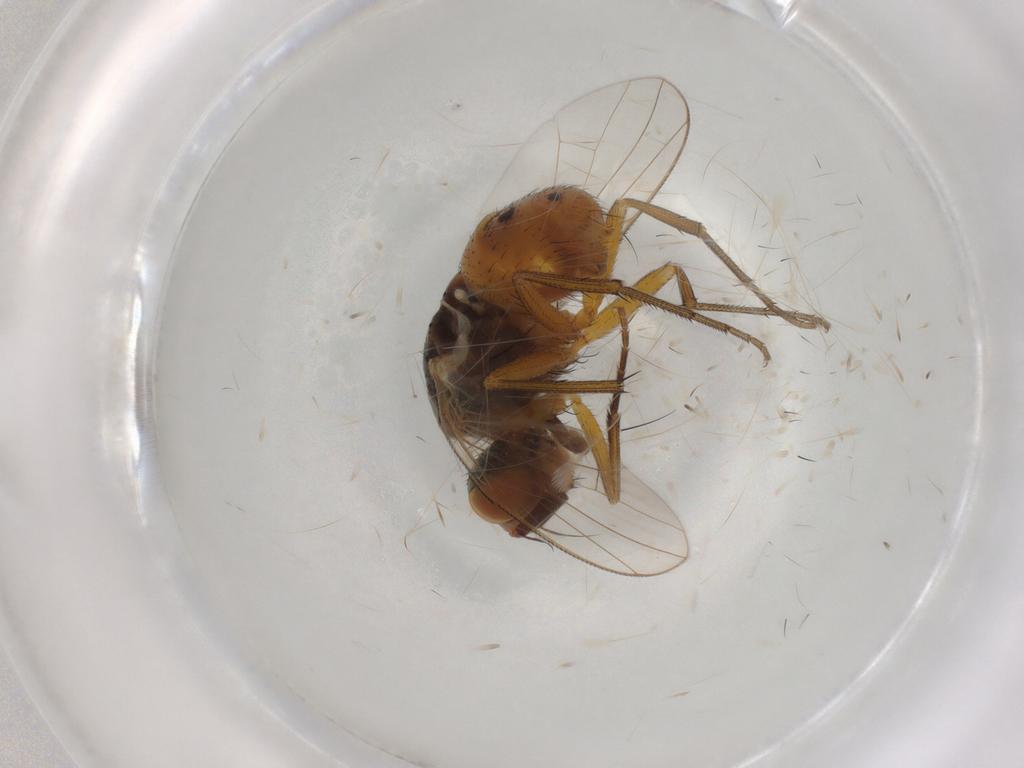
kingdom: Animalia
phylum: Arthropoda
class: Insecta
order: Diptera
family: Muscidae
